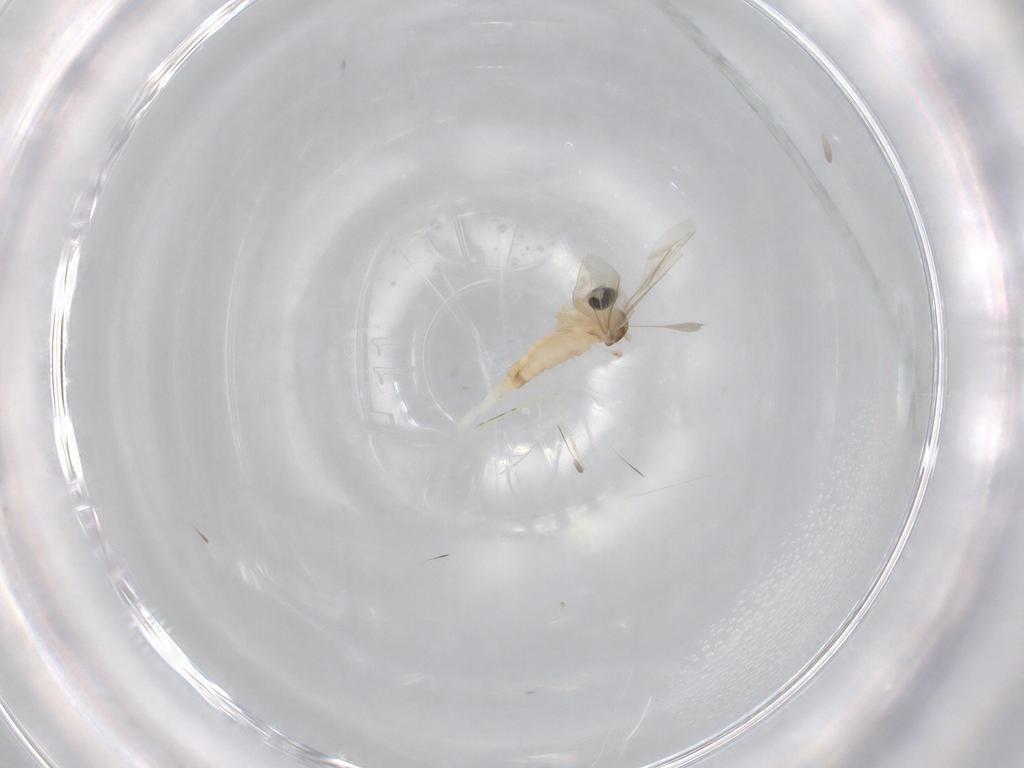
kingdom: Animalia
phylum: Arthropoda
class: Insecta
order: Diptera
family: Cecidomyiidae
